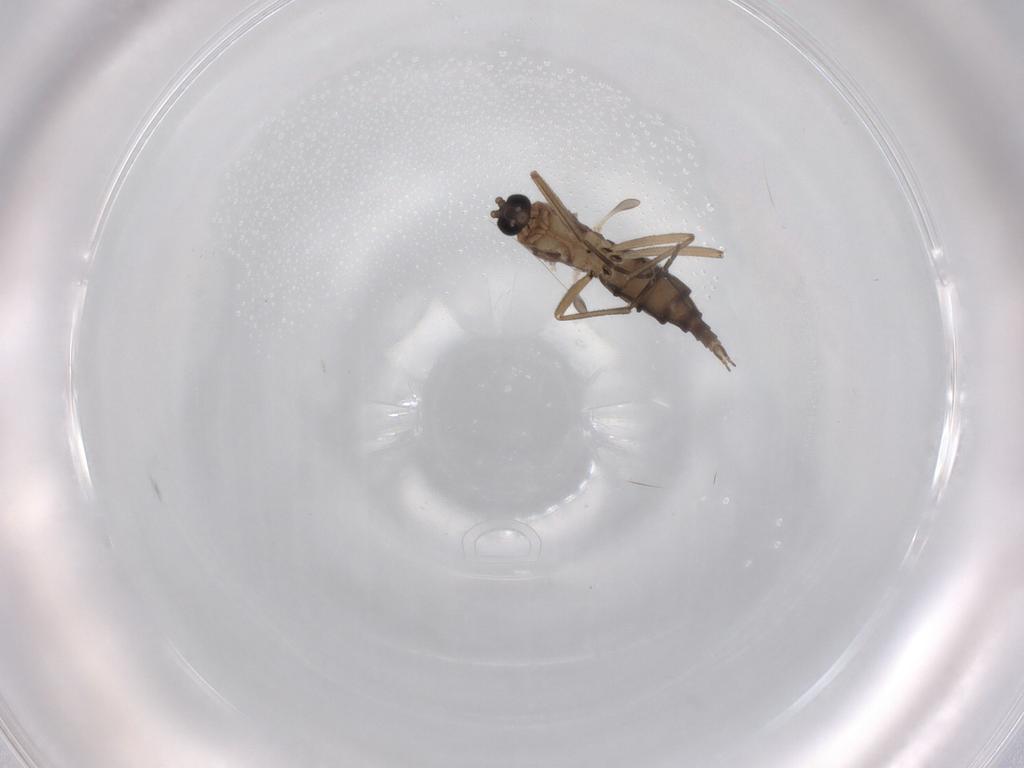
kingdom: Animalia
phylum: Arthropoda
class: Insecta
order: Diptera
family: Sciaridae
